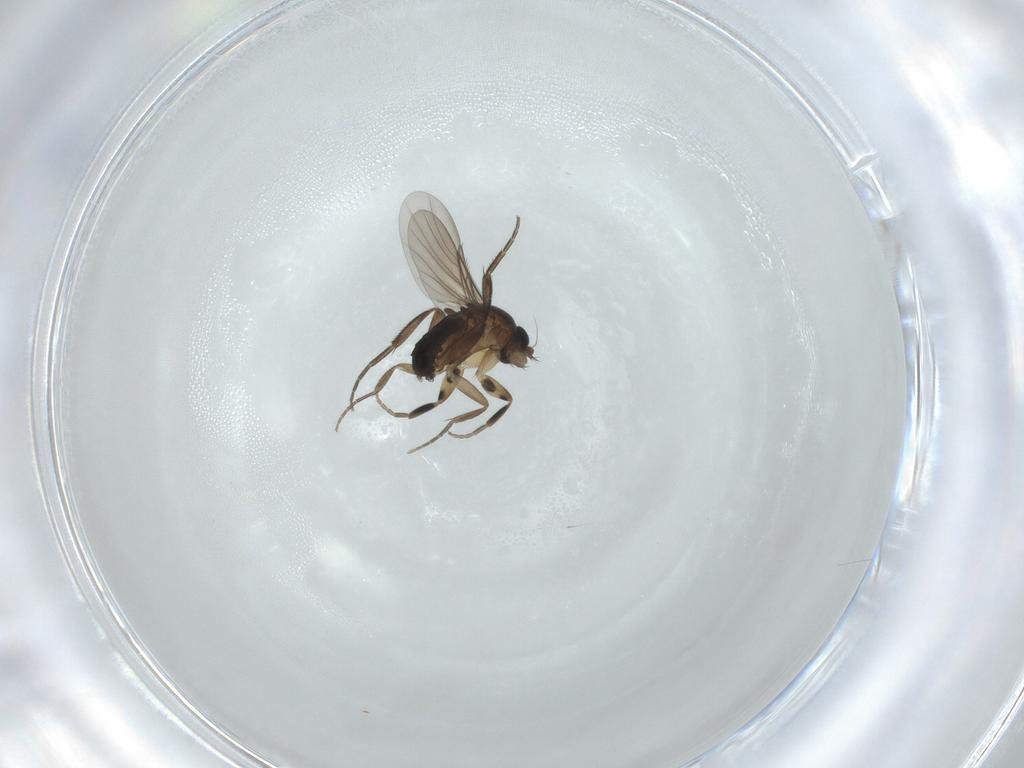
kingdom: Animalia
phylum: Arthropoda
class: Insecta
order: Diptera
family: Phoridae
